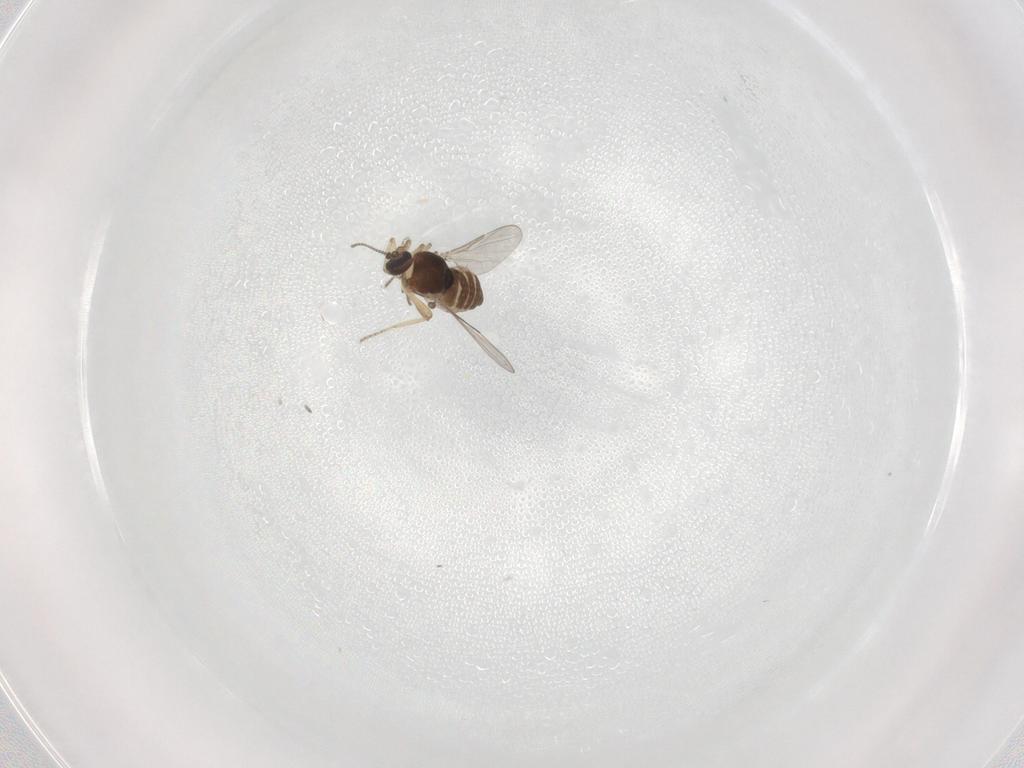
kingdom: Animalia
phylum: Arthropoda
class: Insecta
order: Diptera
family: Ceratopogonidae
